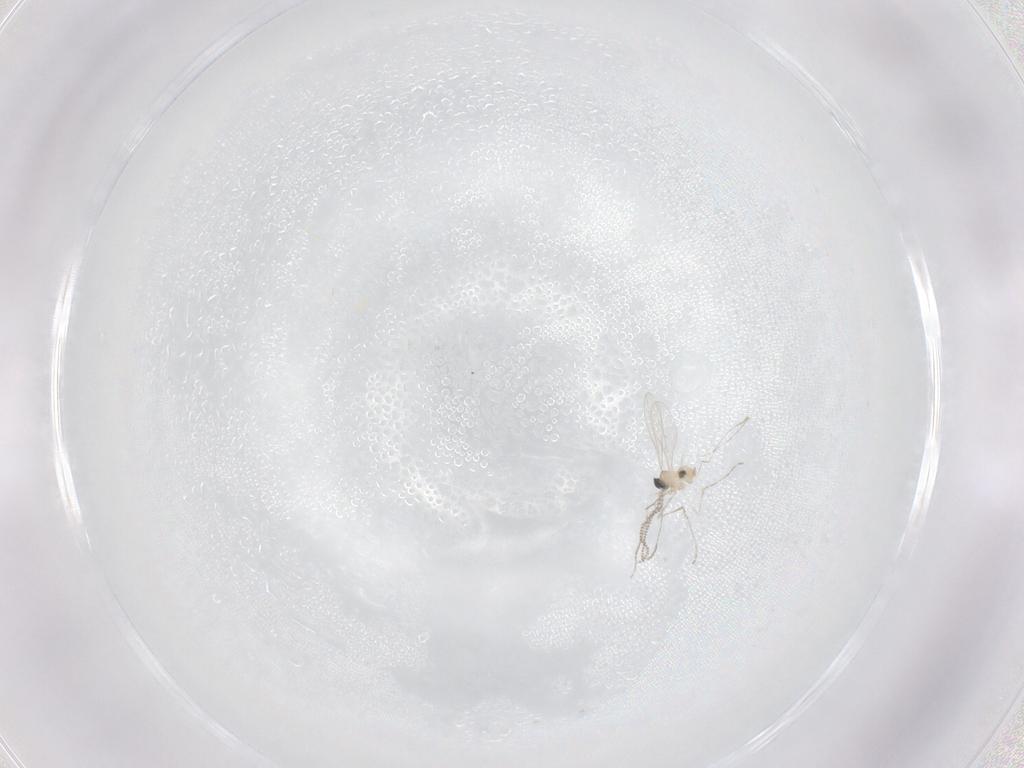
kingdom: Animalia
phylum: Arthropoda
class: Insecta
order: Diptera
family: Cecidomyiidae
